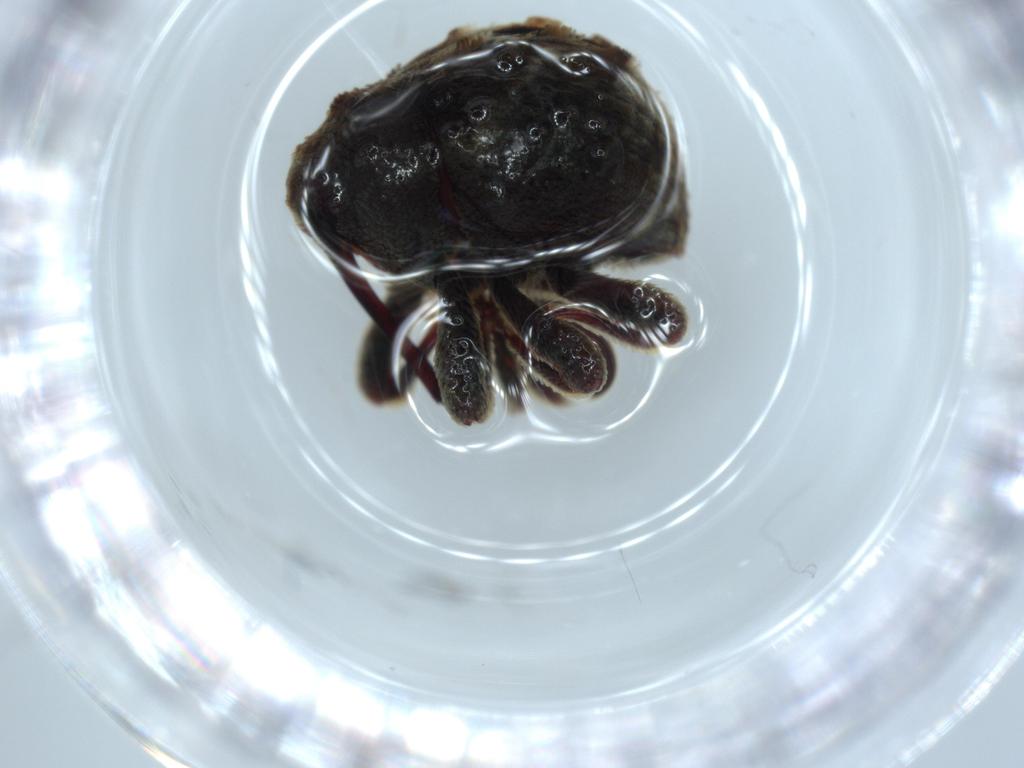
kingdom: Animalia
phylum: Arthropoda
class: Insecta
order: Coleoptera
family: Curculionidae
